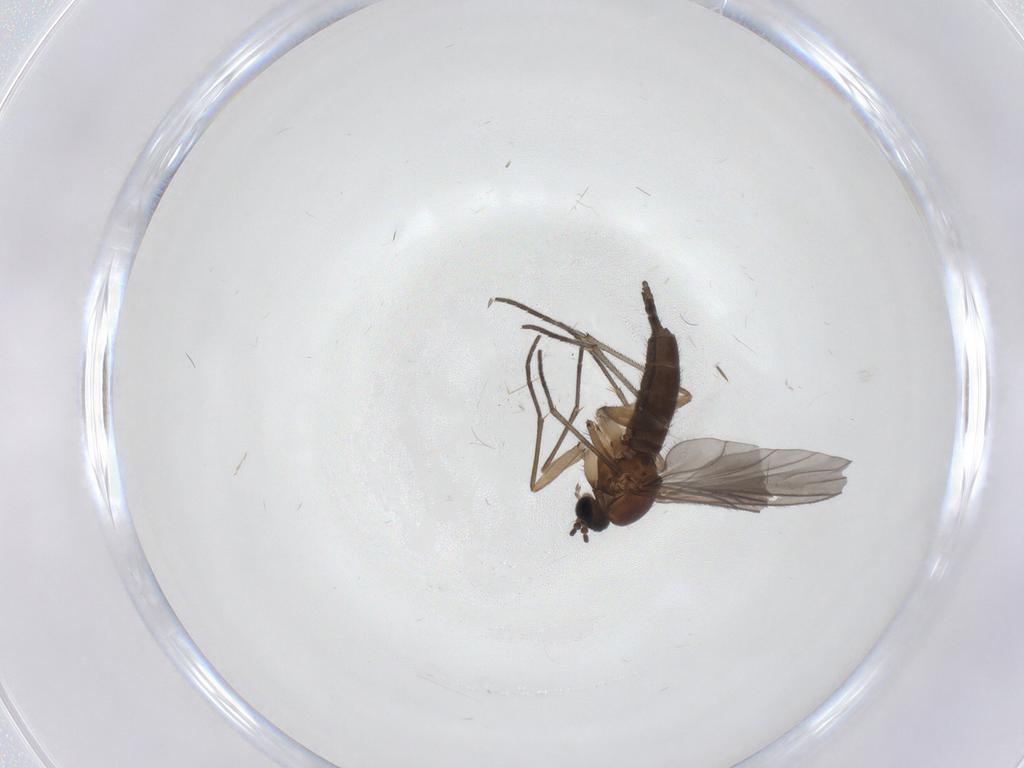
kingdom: Animalia
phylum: Arthropoda
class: Insecta
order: Diptera
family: Cecidomyiidae
